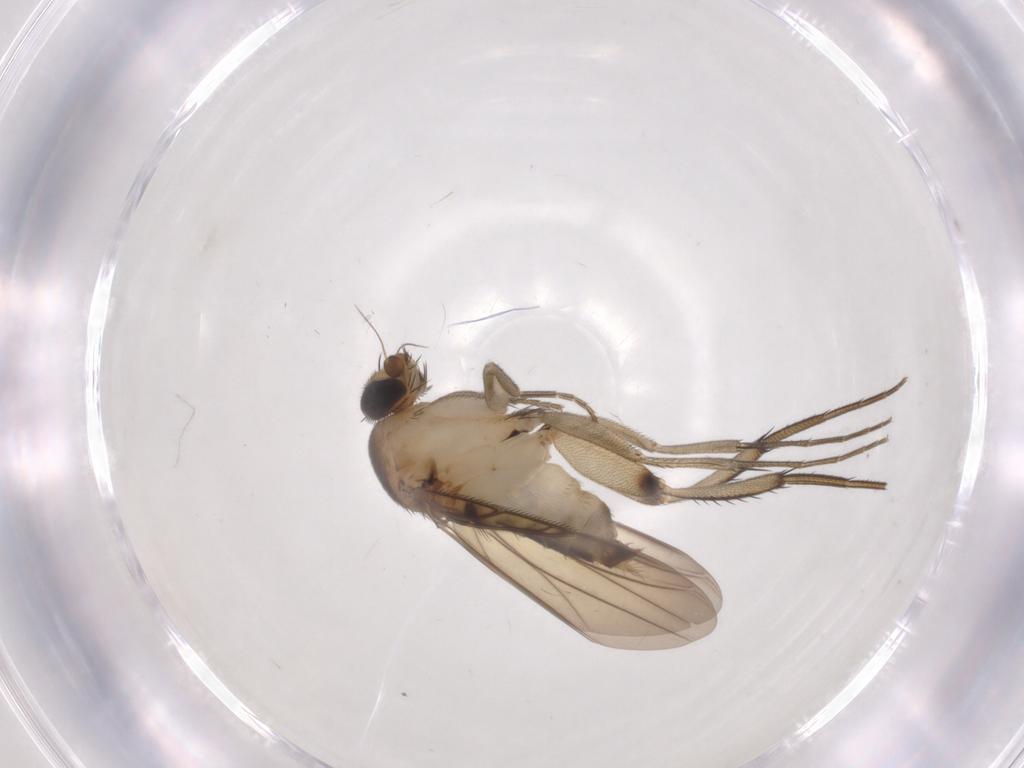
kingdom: Animalia
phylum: Arthropoda
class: Insecta
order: Diptera
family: Phoridae
